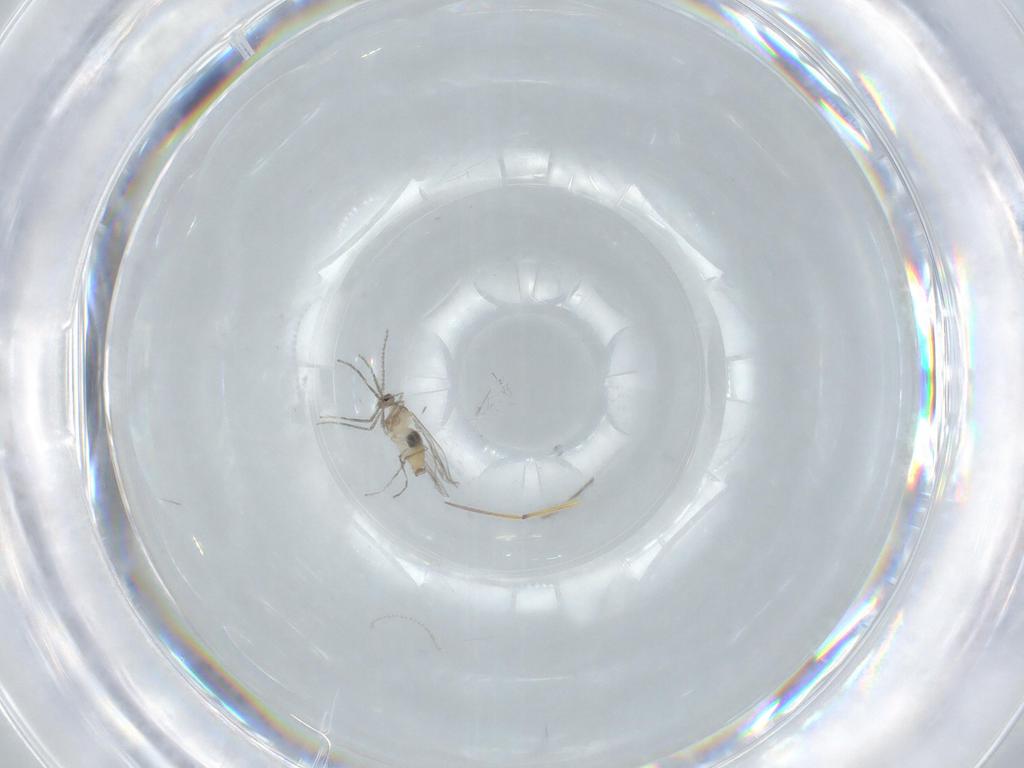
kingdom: Animalia
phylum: Arthropoda
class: Insecta
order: Diptera
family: Cecidomyiidae
